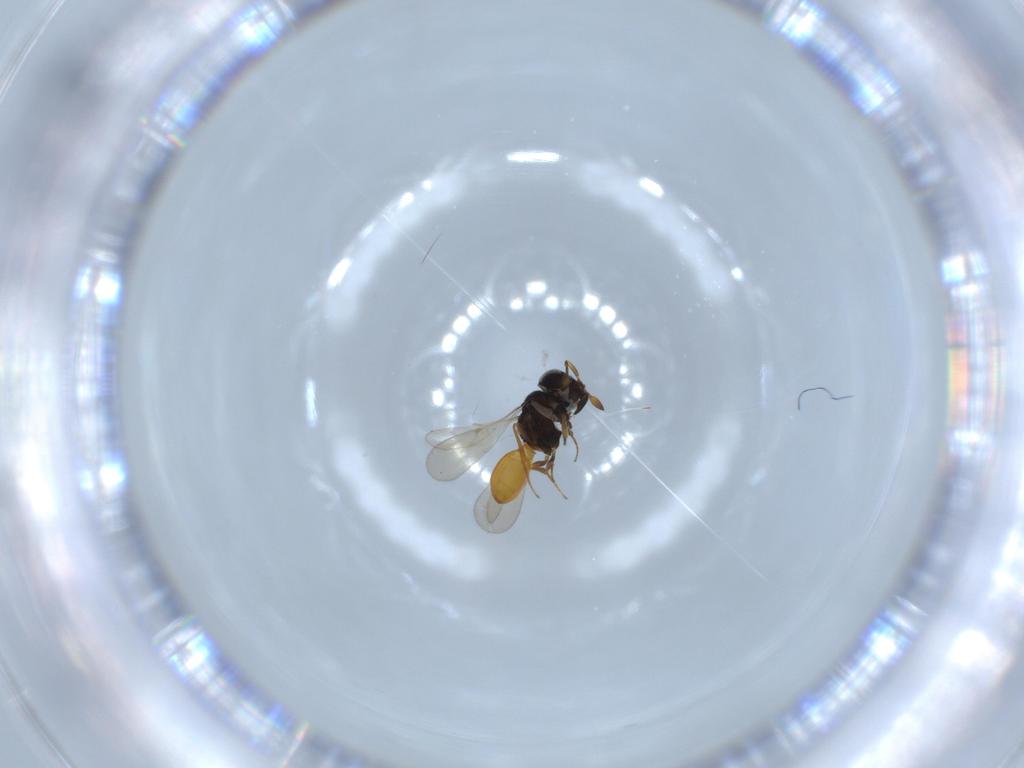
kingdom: Animalia
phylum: Arthropoda
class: Insecta
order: Hymenoptera
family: Scelionidae
